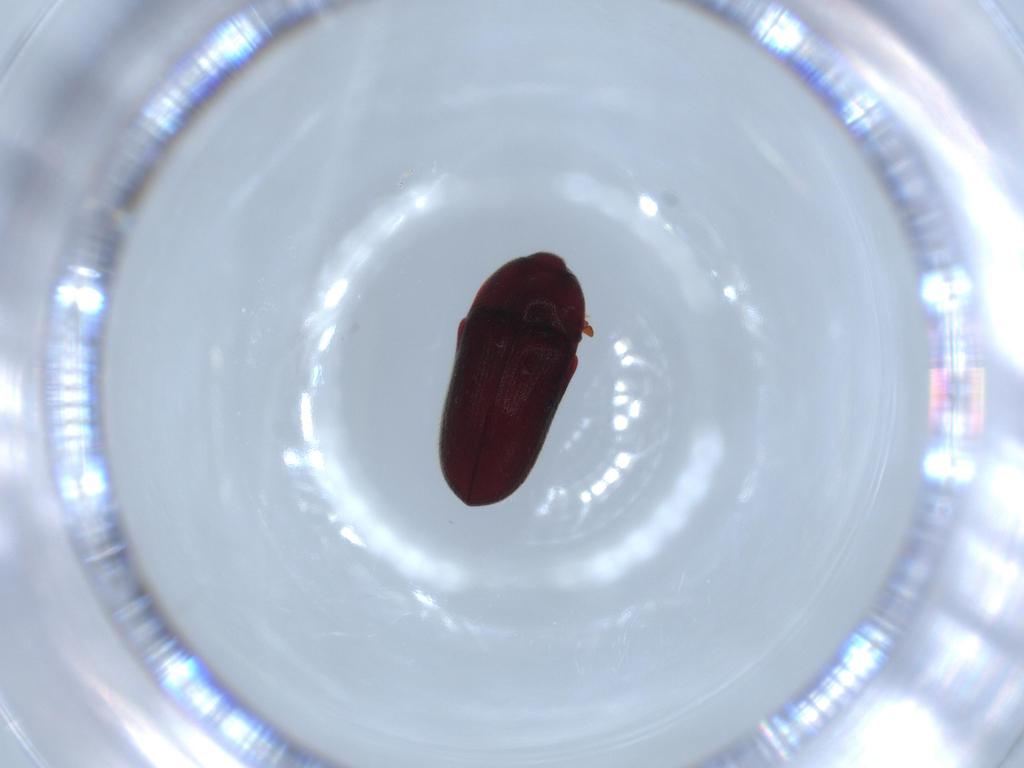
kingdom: Animalia
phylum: Arthropoda
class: Insecta
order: Coleoptera
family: Throscidae
